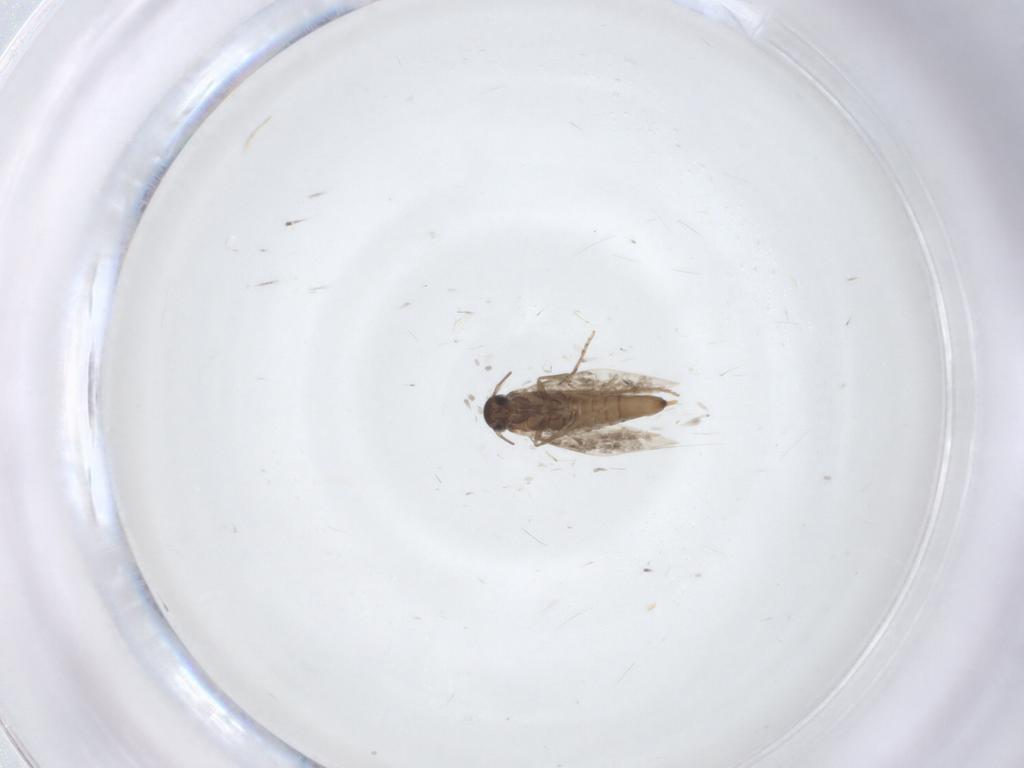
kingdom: Animalia
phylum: Arthropoda
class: Insecta
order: Lepidoptera
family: Heliozelidae
